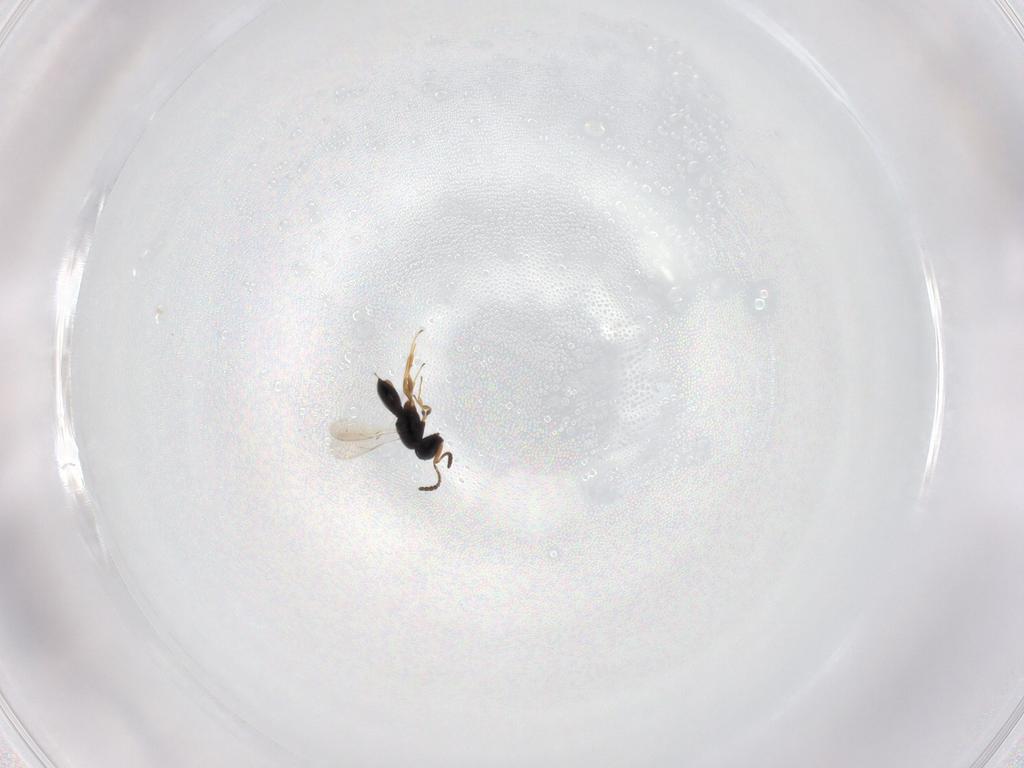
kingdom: Animalia
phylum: Arthropoda
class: Insecta
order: Hymenoptera
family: Scelionidae
